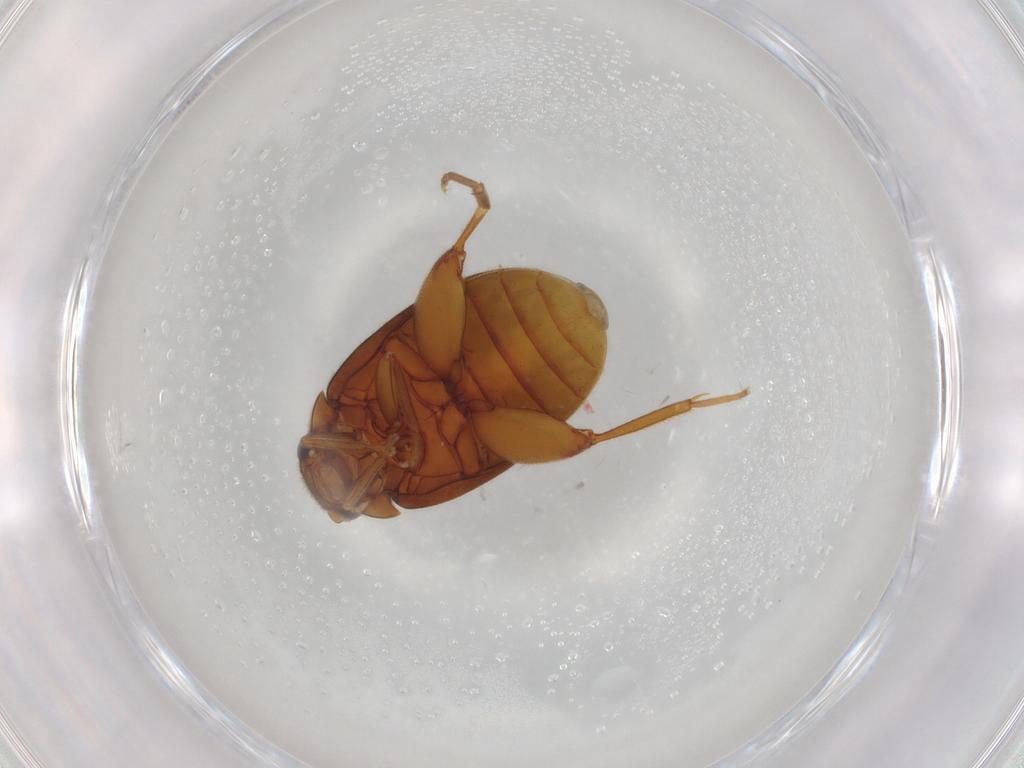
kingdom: Animalia
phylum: Arthropoda
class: Insecta
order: Coleoptera
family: Scirtidae
